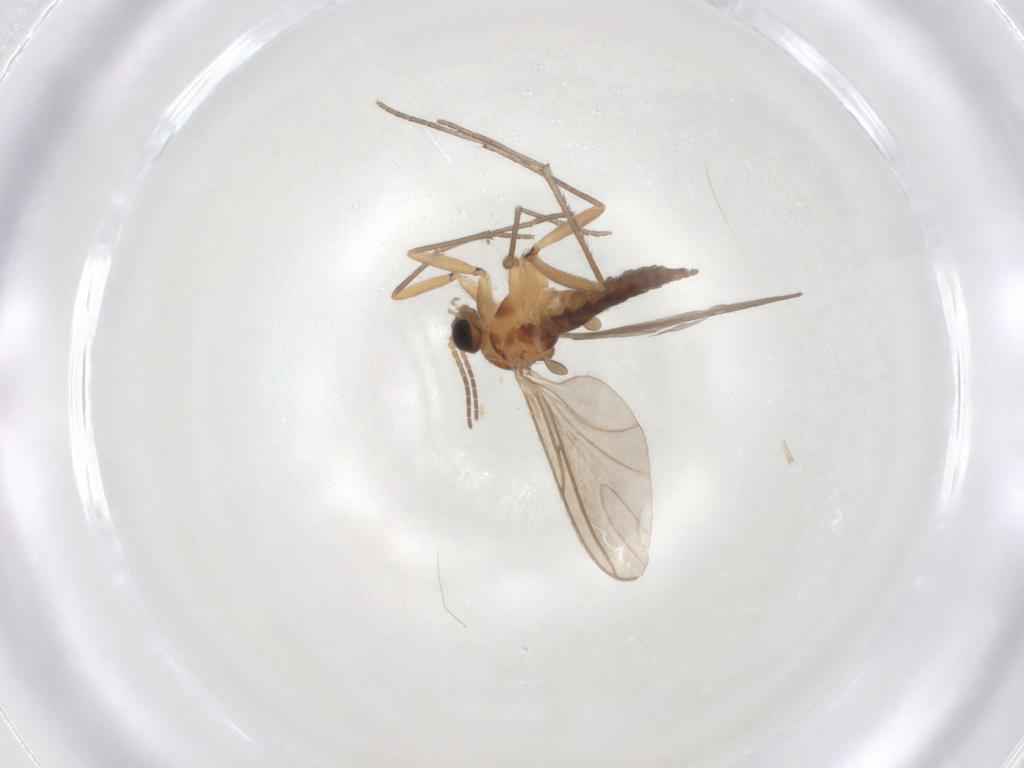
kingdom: Animalia
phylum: Arthropoda
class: Insecta
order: Diptera
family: Sciaridae
